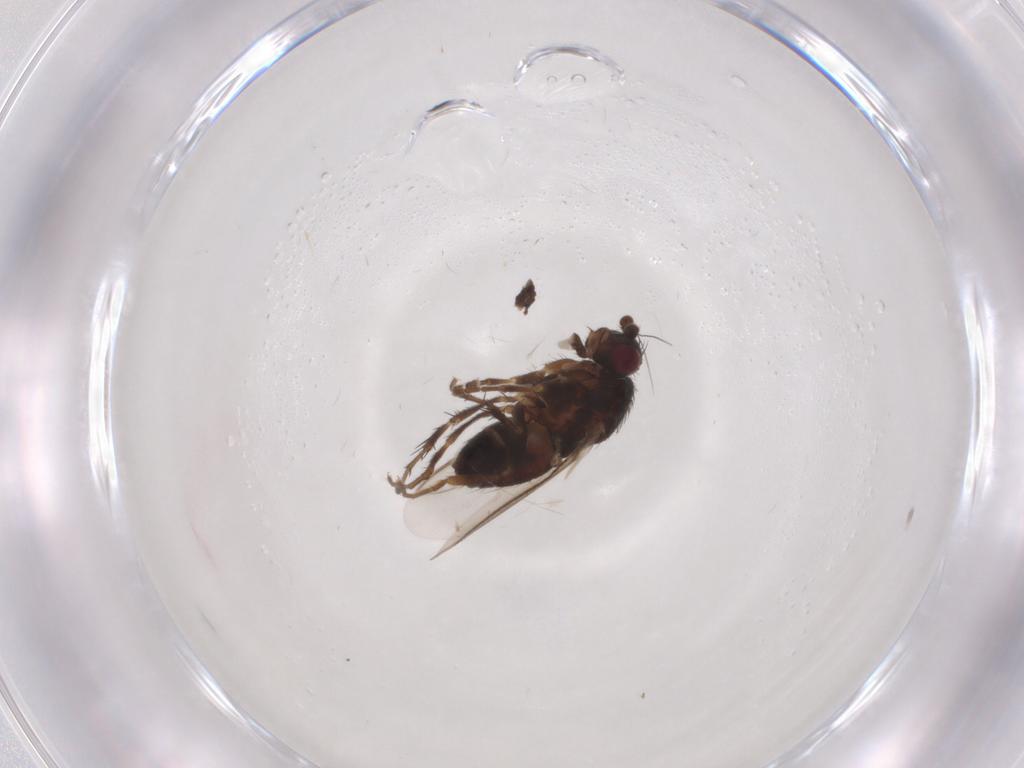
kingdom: Animalia
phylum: Arthropoda
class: Insecta
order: Diptera
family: Sphaeroceridae
